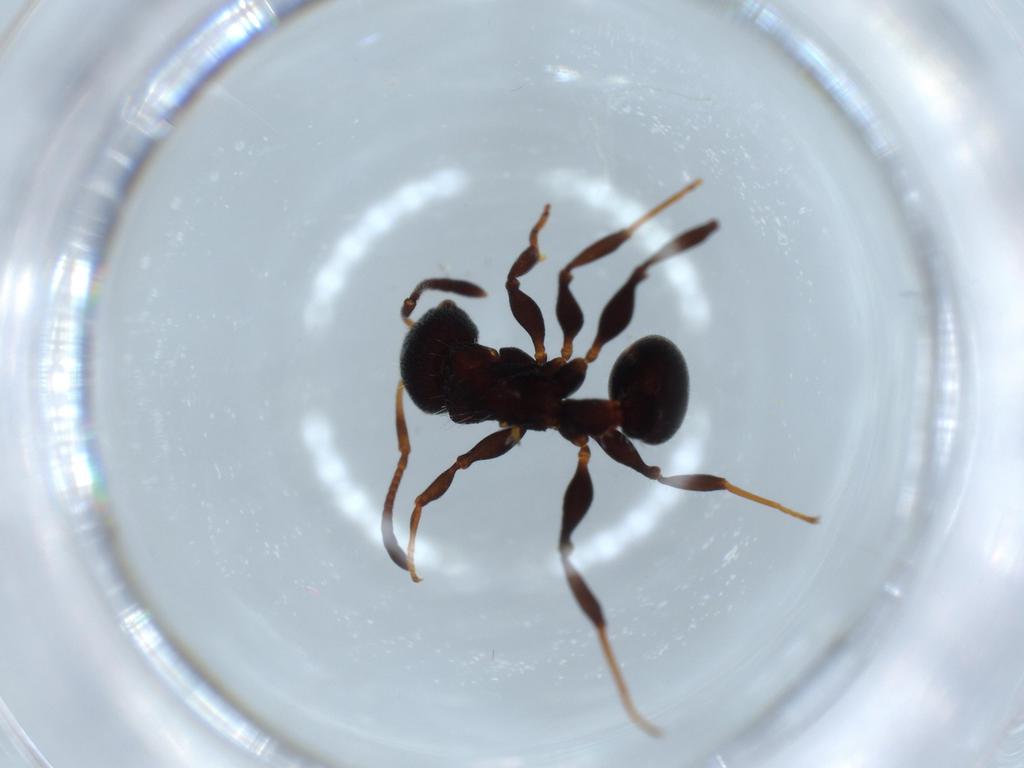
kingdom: Animalia
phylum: Arthropoda
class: Insecta
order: Hymenoptera
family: Formicidae
